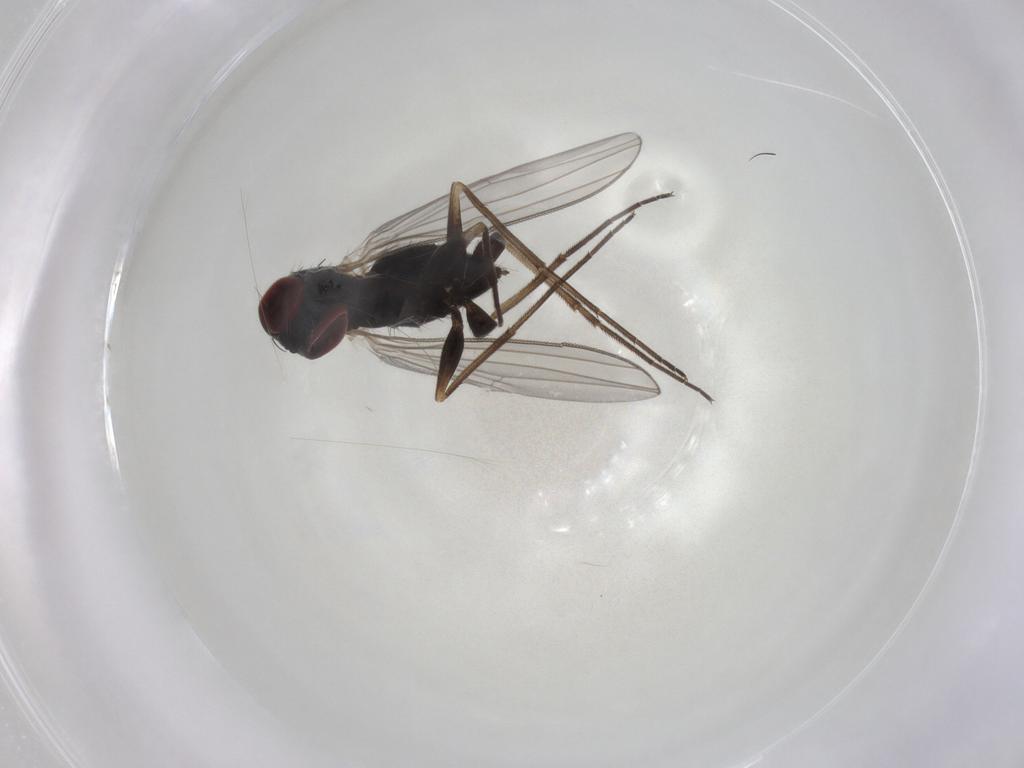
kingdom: Animalia
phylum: Arthropoda
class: Insecta
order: Diptera
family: Dolichopodidae
